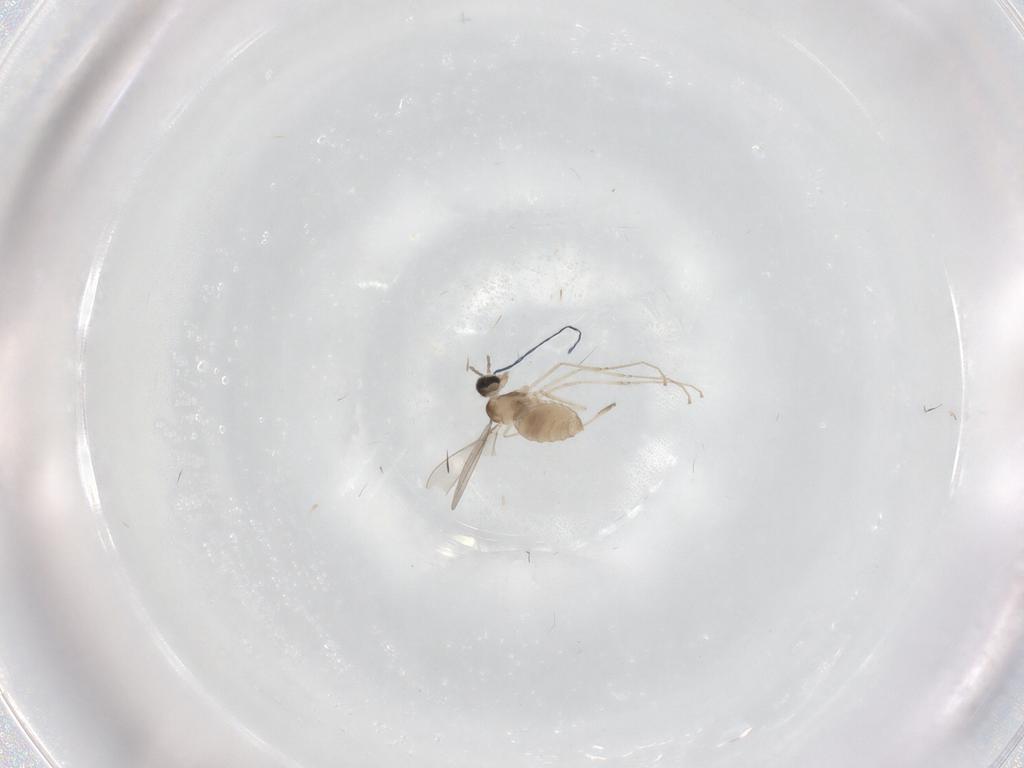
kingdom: Animalia
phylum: Arthropoda
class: Insecta
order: Diptera
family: Cecidomyiidae
